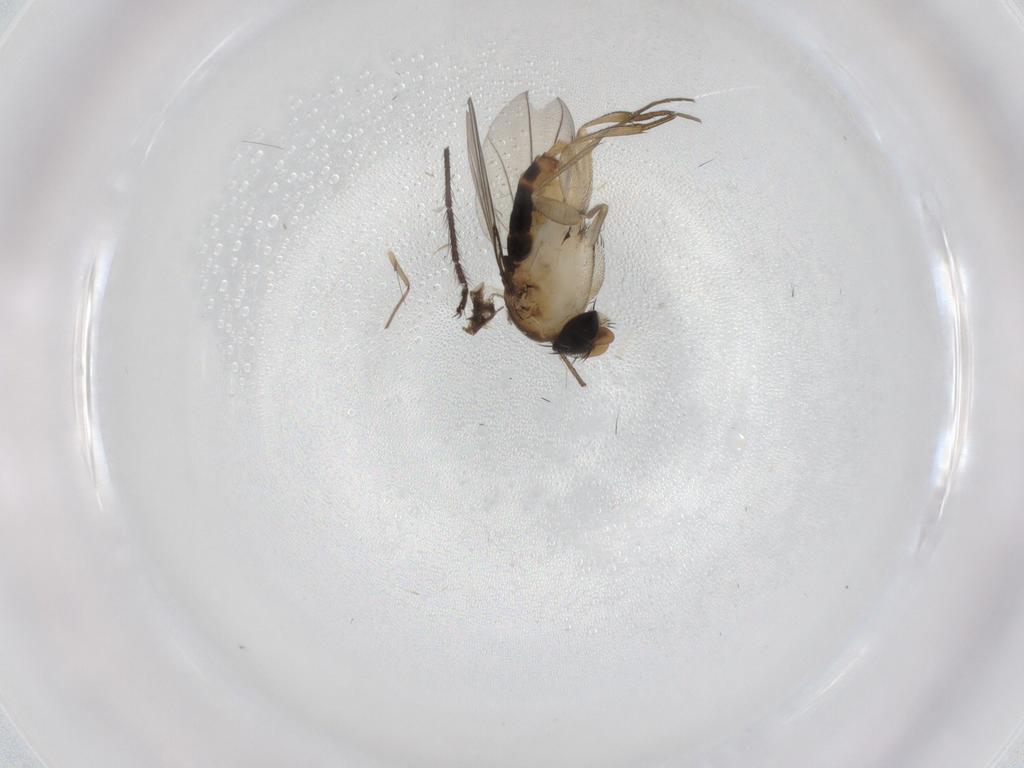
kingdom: Animalia
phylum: Arthropoda
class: Insecta
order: Diptera
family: Phoridae
